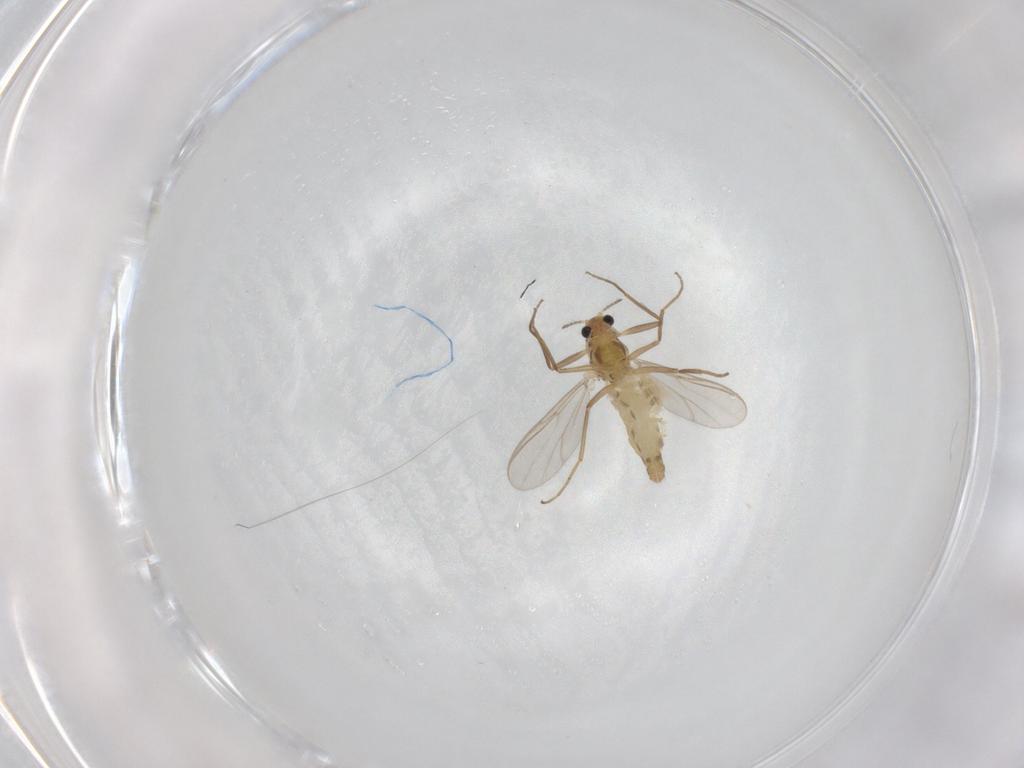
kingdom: Animalia
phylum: Arthropoda
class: Insecta
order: Diptera
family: Chironomidae
